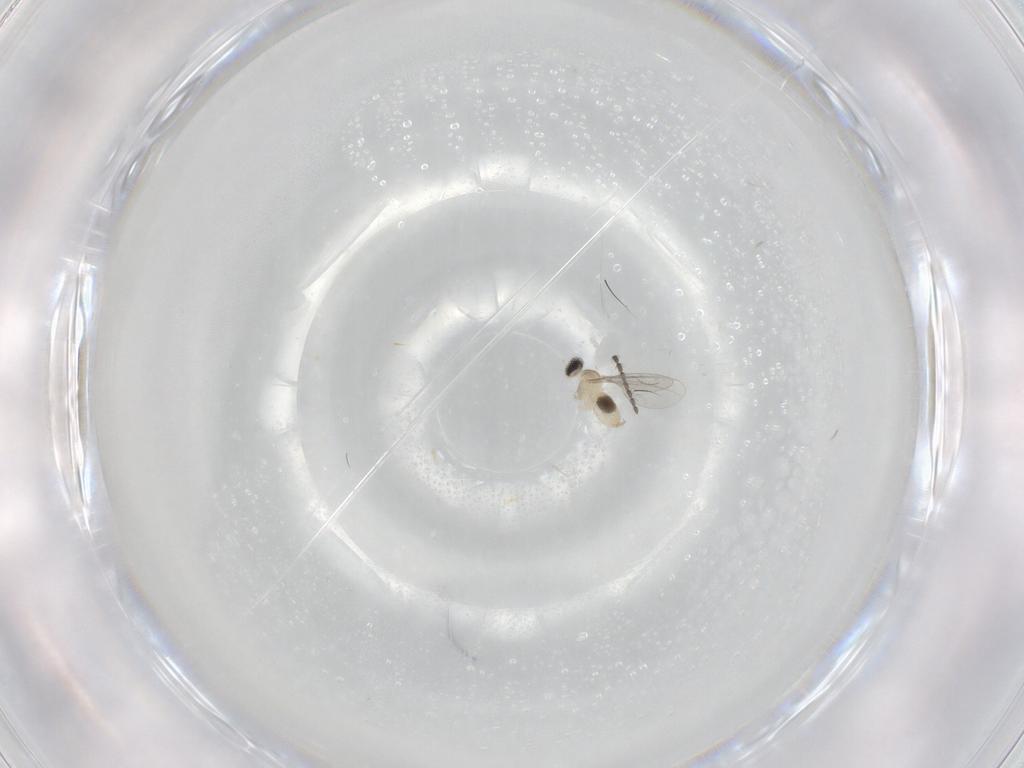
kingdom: Animalia
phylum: Arthropoda
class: Insecta
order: Diptera
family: Cecidomyiidae
